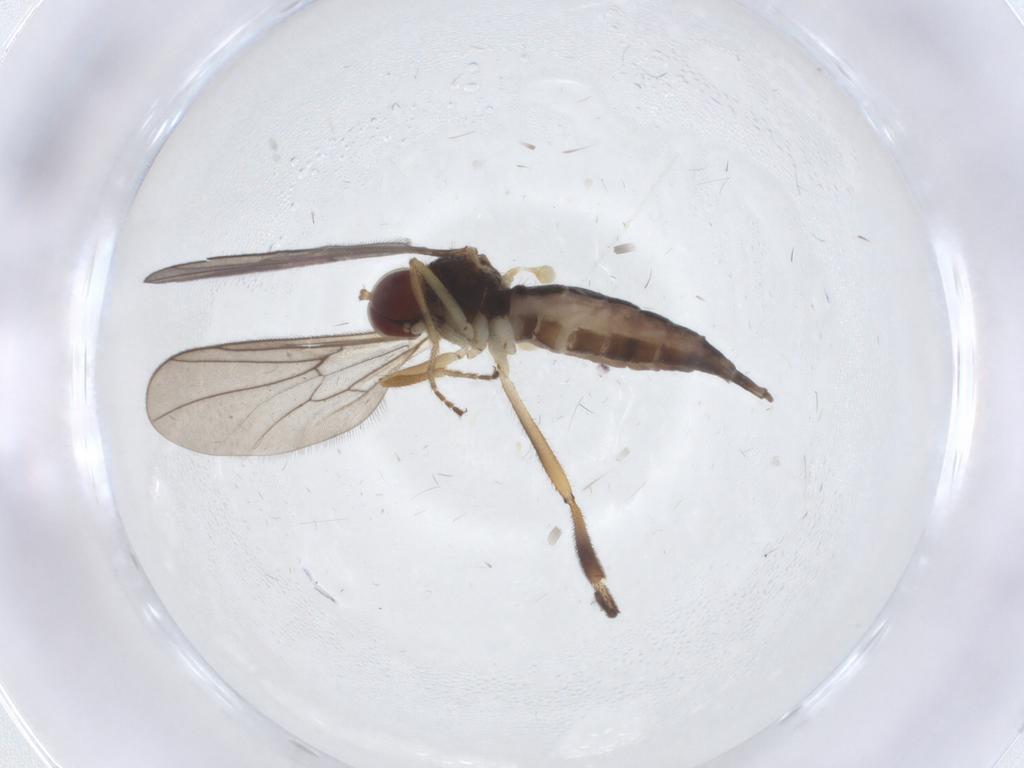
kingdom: Animalia
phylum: Arthropoda
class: Insecta
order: Diptera
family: Hybotidae
